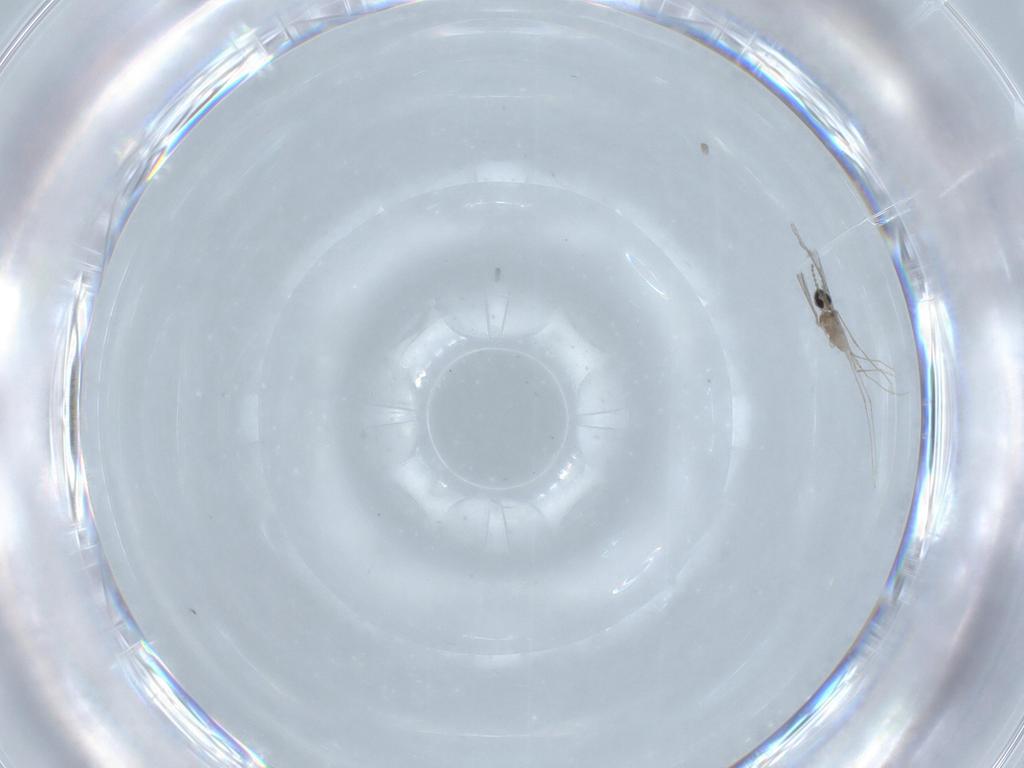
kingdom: Animalia
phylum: Arthropoda
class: Insecta
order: Diptera
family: Cecidomyiidae
